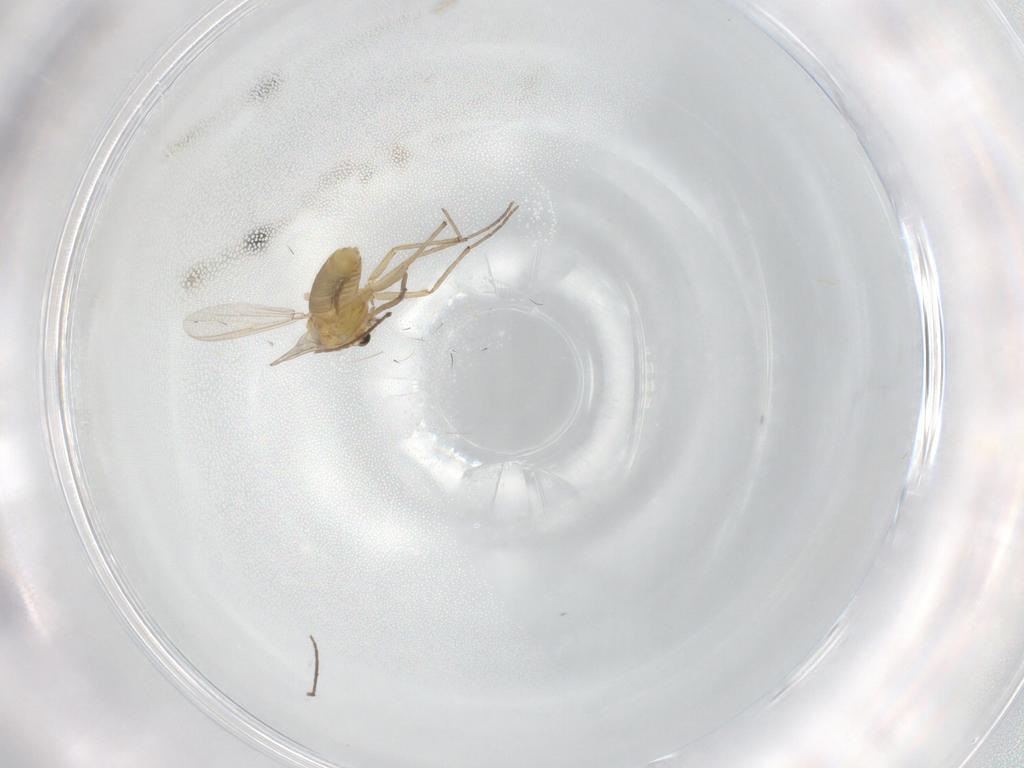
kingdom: Animalia
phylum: Arthropoda
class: Insecta
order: Diptera
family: Chironomidae
